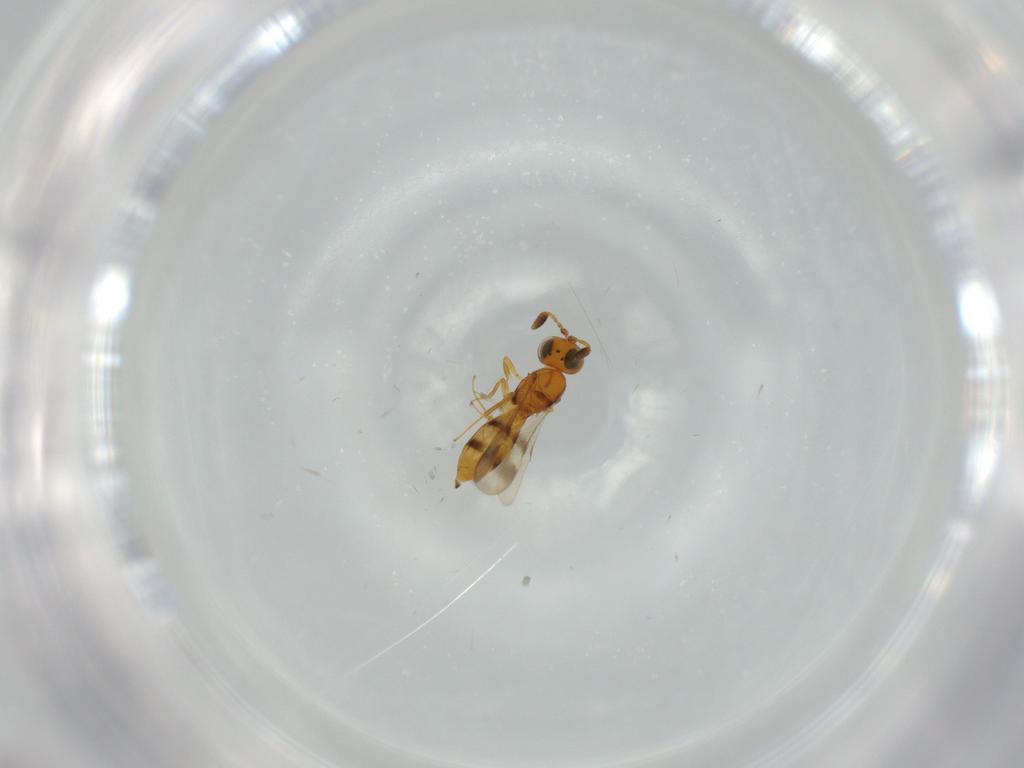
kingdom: Animalia
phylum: Arthropoda
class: Insecta
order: Hymenoptera
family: Scelionidae
